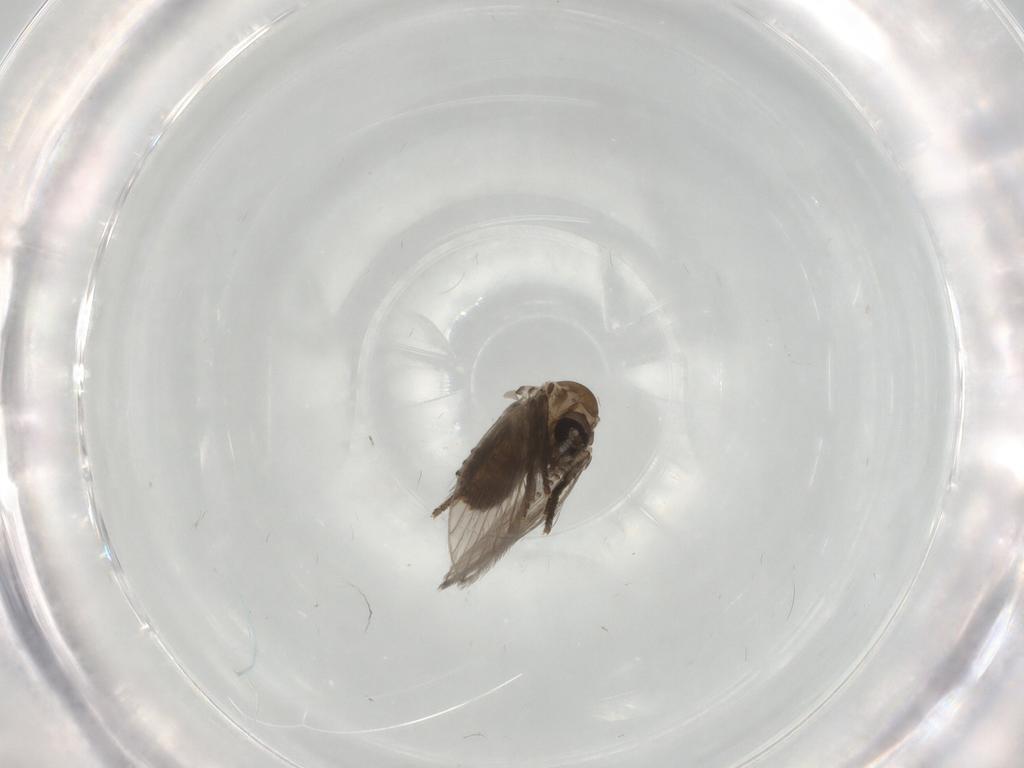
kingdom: Animalia
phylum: Arthropoda
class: Insecta
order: Diptera
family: Psychodidae
